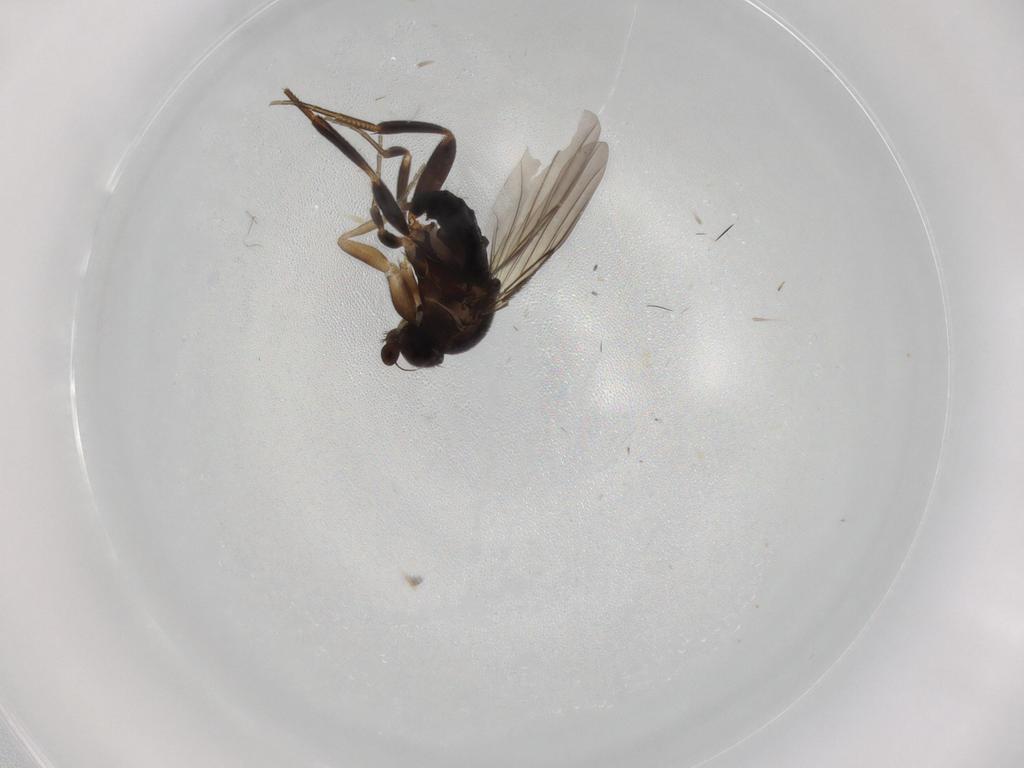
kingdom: Animalia
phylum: Arthropoda
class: Insecta
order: Diptera
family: Phoridae
